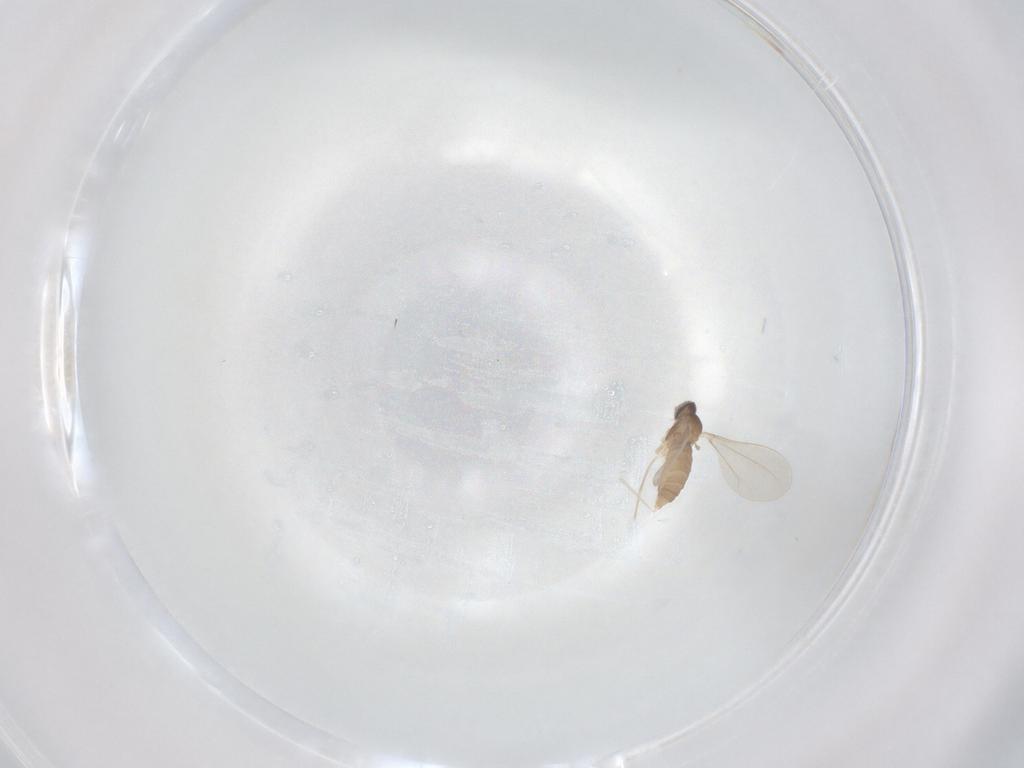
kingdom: Animalia
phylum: Arthropoda
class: Insecta
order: Diptera
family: Cecidomyiidae
